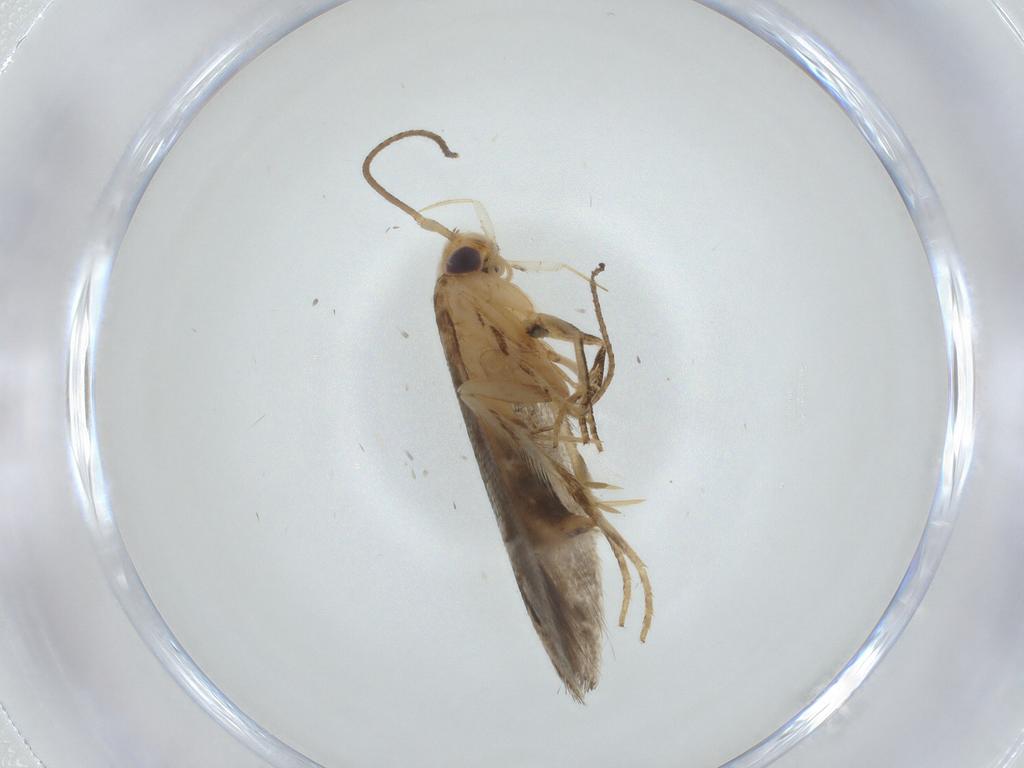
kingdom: Animalia
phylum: Arthropoda
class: Insecta
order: Lepidoptera
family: Elachistidae
